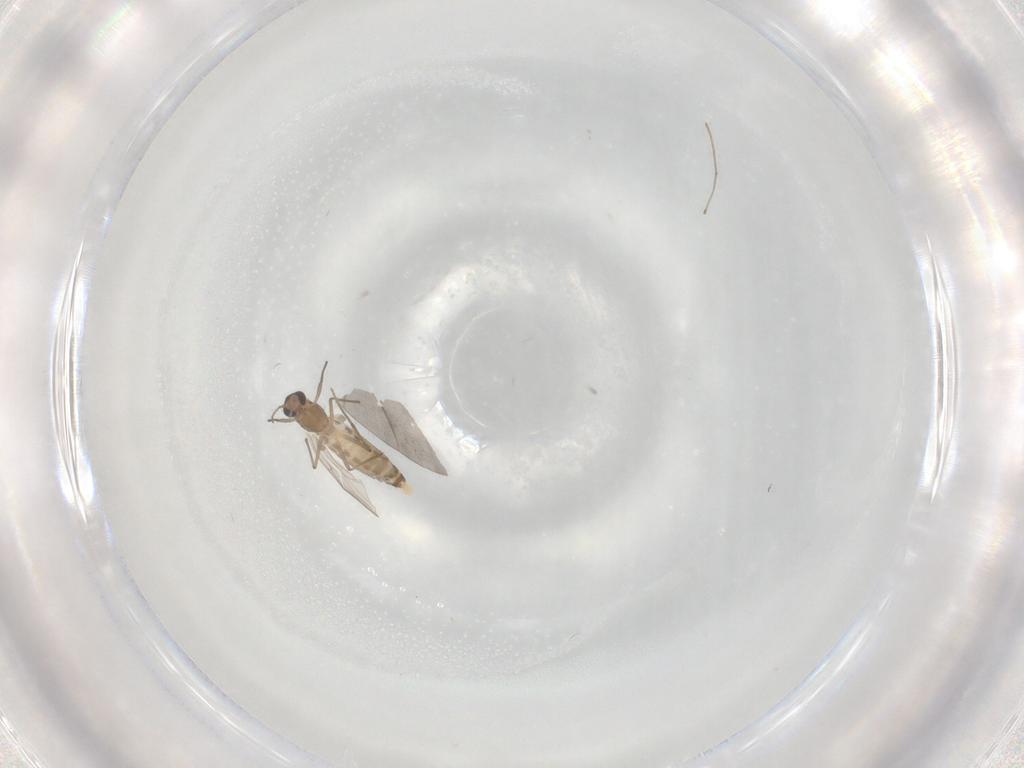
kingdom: Animalia
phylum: Arthropoda
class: Insecta
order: Diptera
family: Chironomidae
